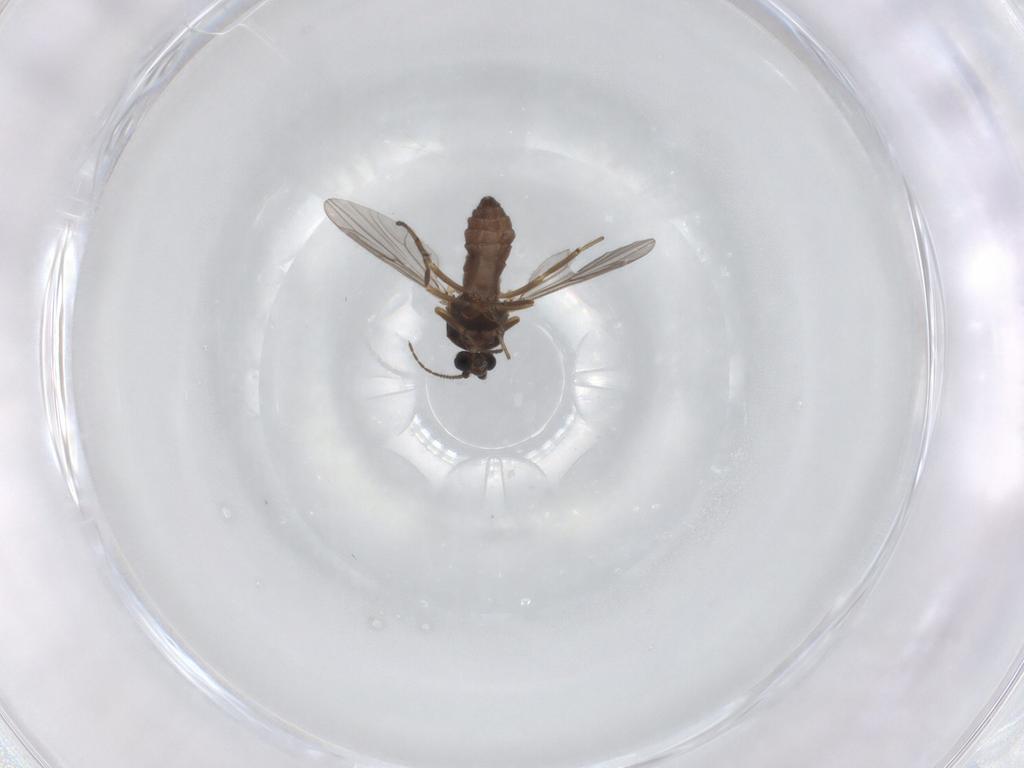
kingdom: Animalia
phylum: Arthropoda
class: Insecta
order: Diptera
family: Ceratopogonidae
